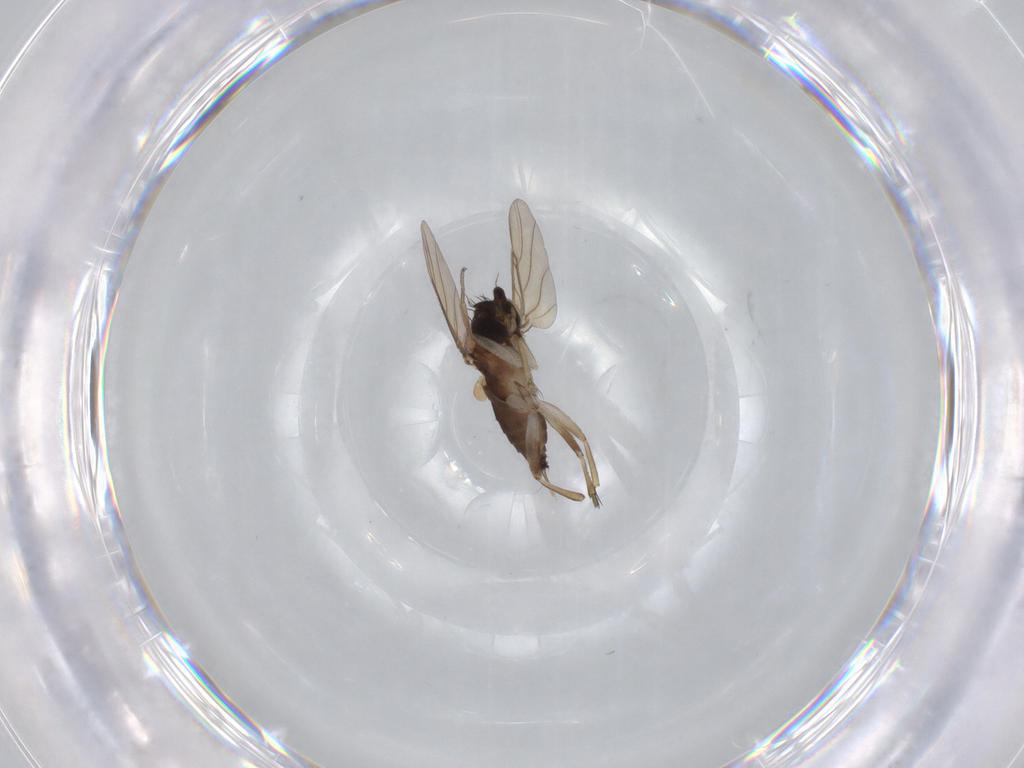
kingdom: Animalia
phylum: Arthropoda
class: Insecta
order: Diptera
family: Phoridae
